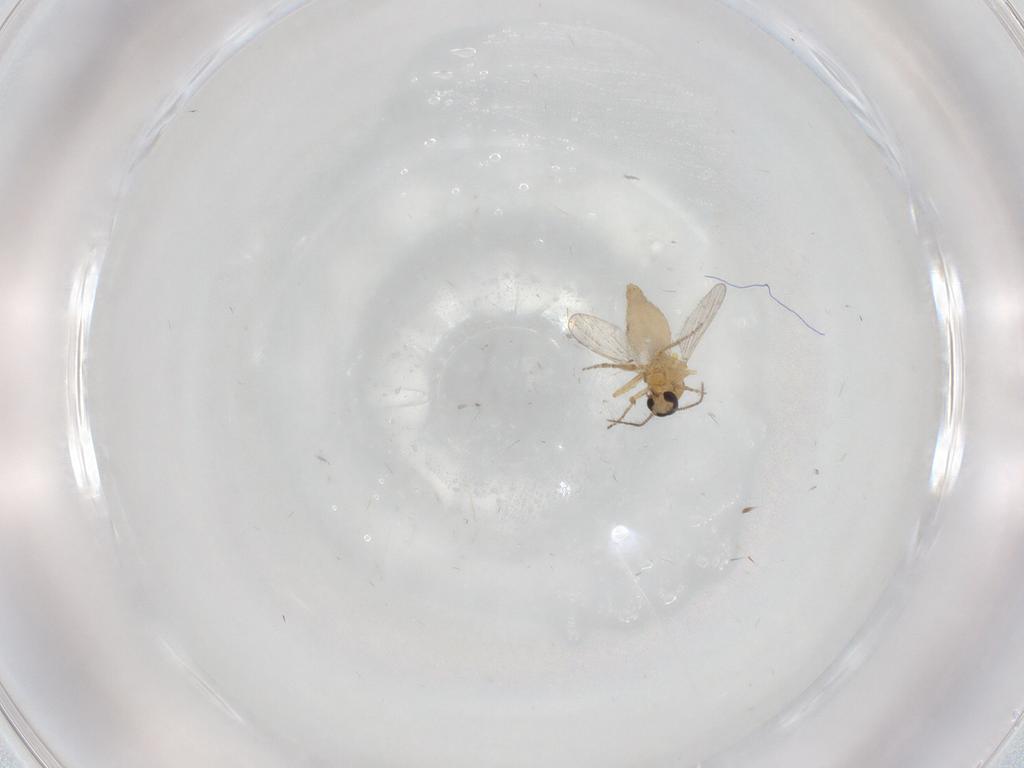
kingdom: Animalia
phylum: Arthropoda
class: Insecta
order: Diptera
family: Ceratopogonidae
